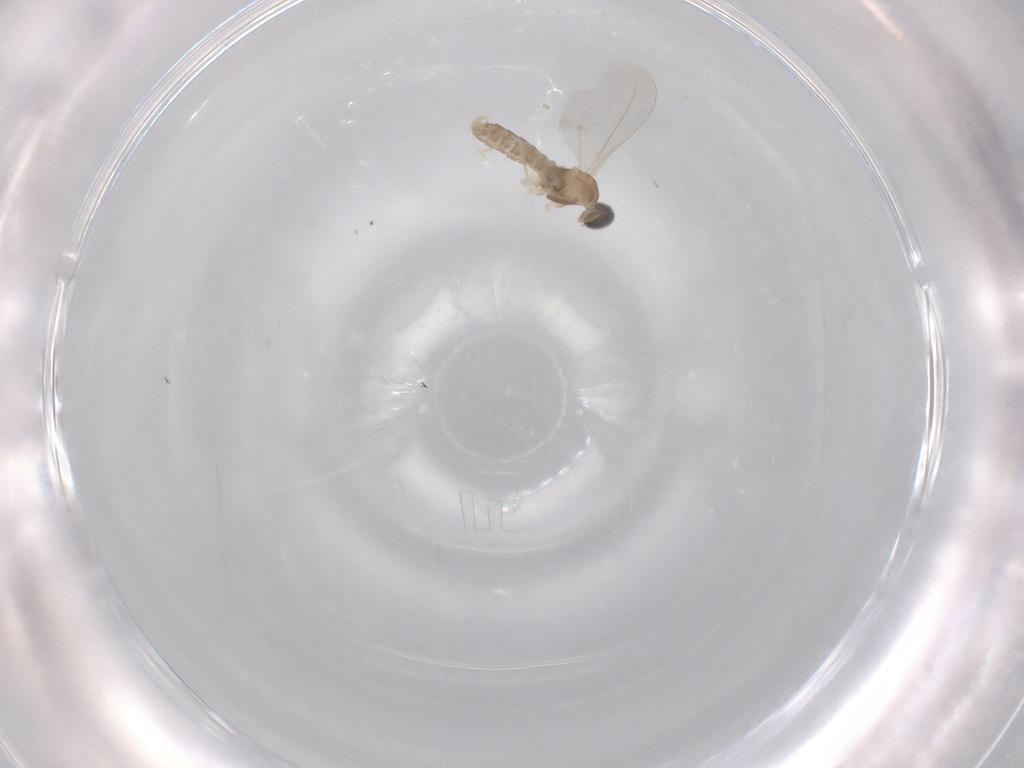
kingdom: Animalia
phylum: Arthropoda
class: Insecta
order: Diptera
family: Cecidomyiidae
